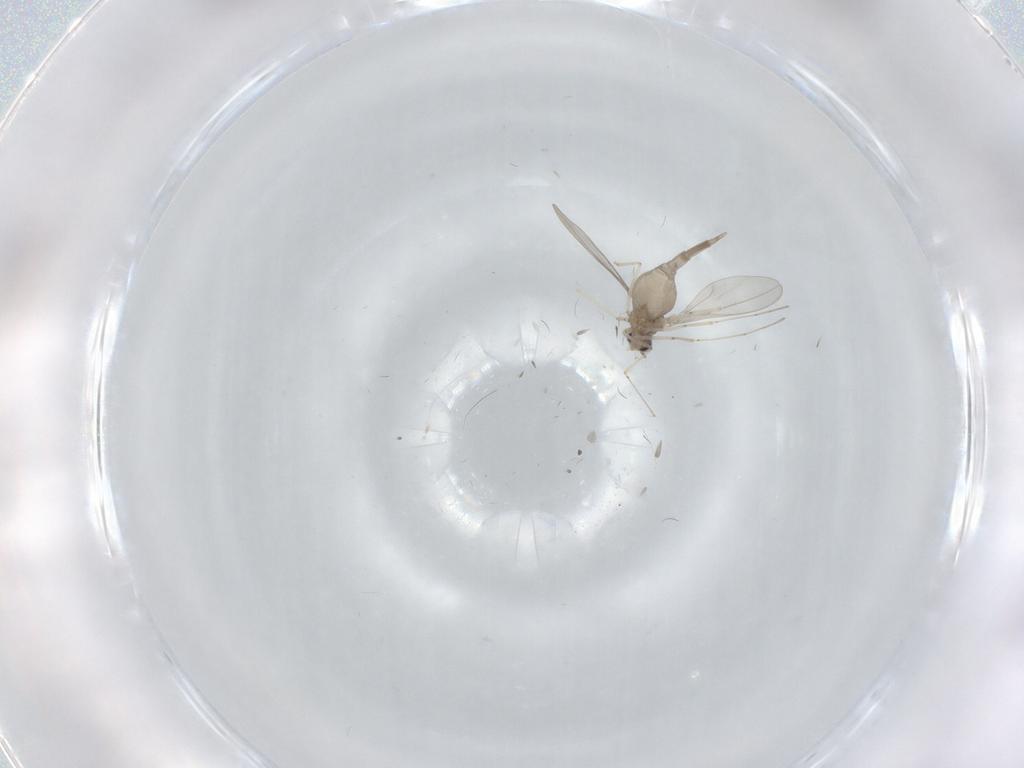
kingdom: Animalia
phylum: Arthropoda
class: Insecta
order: Diptera
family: Cecidomyiidae
